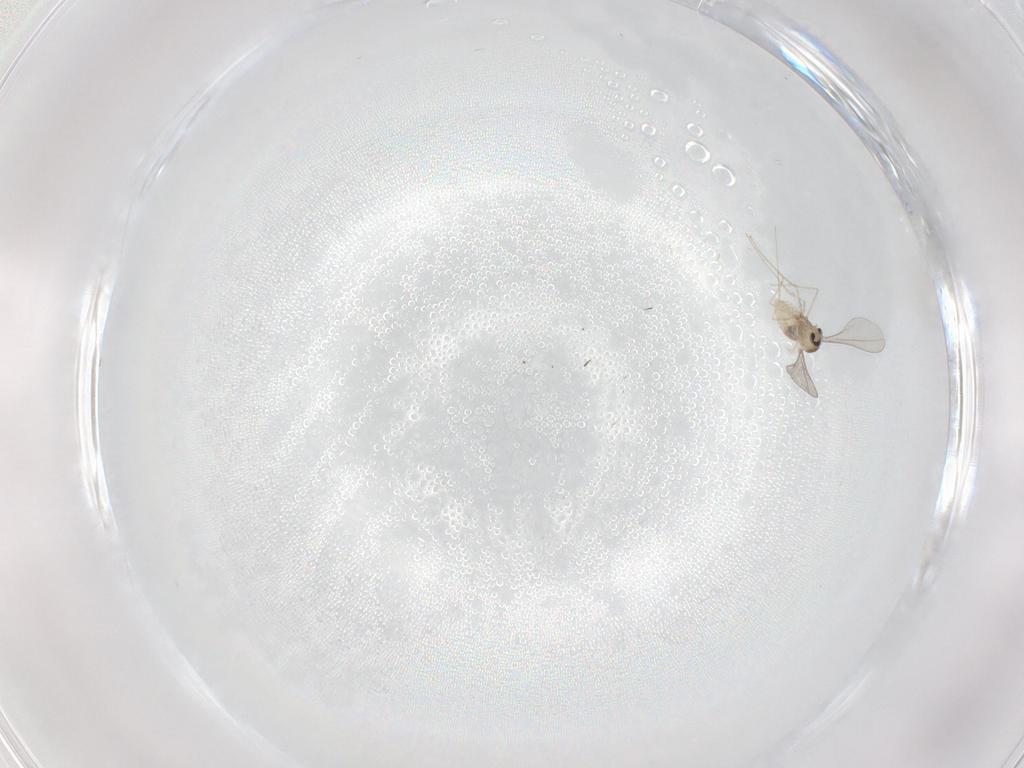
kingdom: Animalia
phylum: Arthropoda
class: Insecta
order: Diptera
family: Cecidomyiidae
